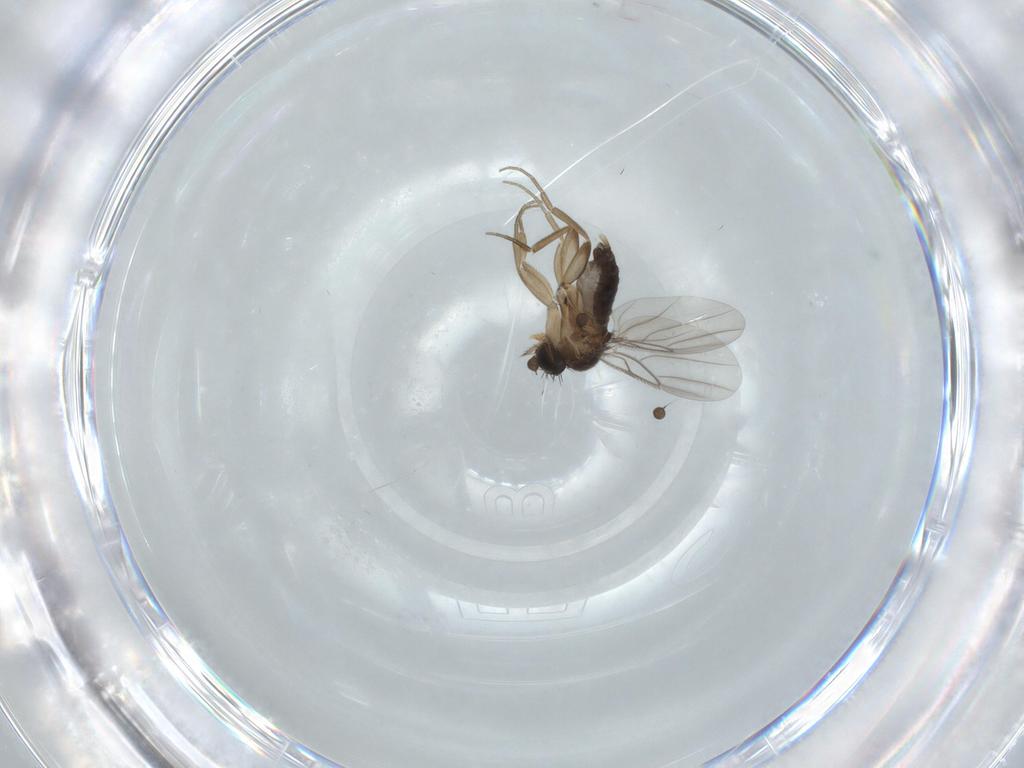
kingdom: Animalia
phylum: Arthropoda
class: Insecta
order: Diptera
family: Phoridae
